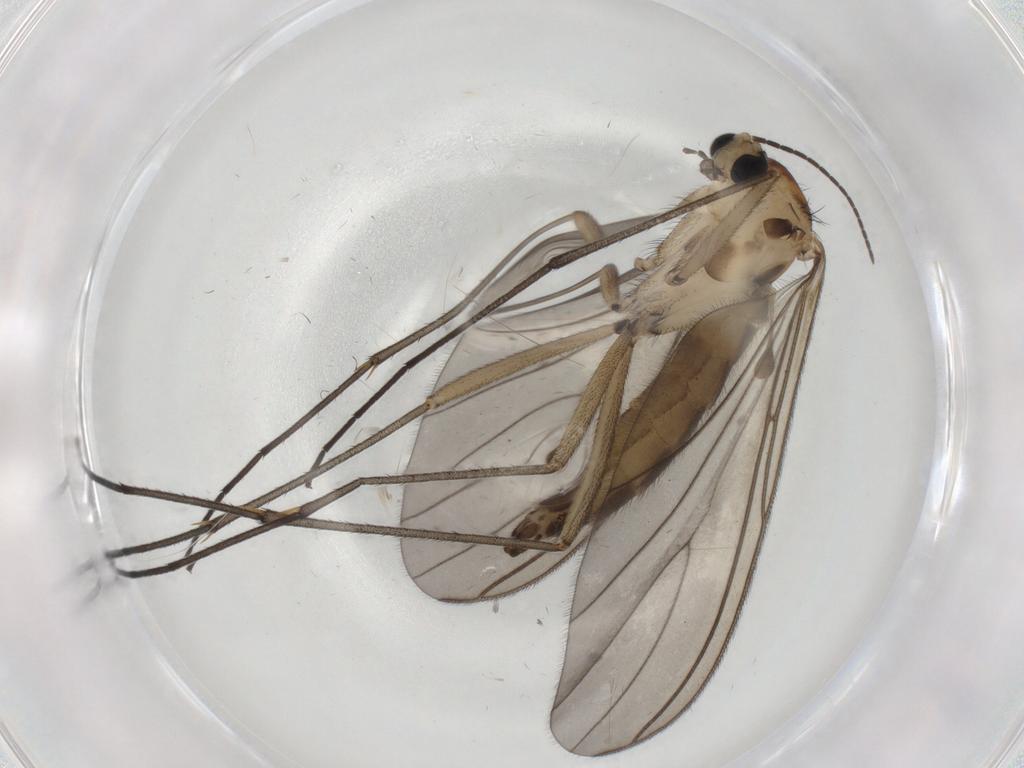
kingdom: Animalia
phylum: Arthropoda
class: Insecta
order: Diptera
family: Sciaridae
